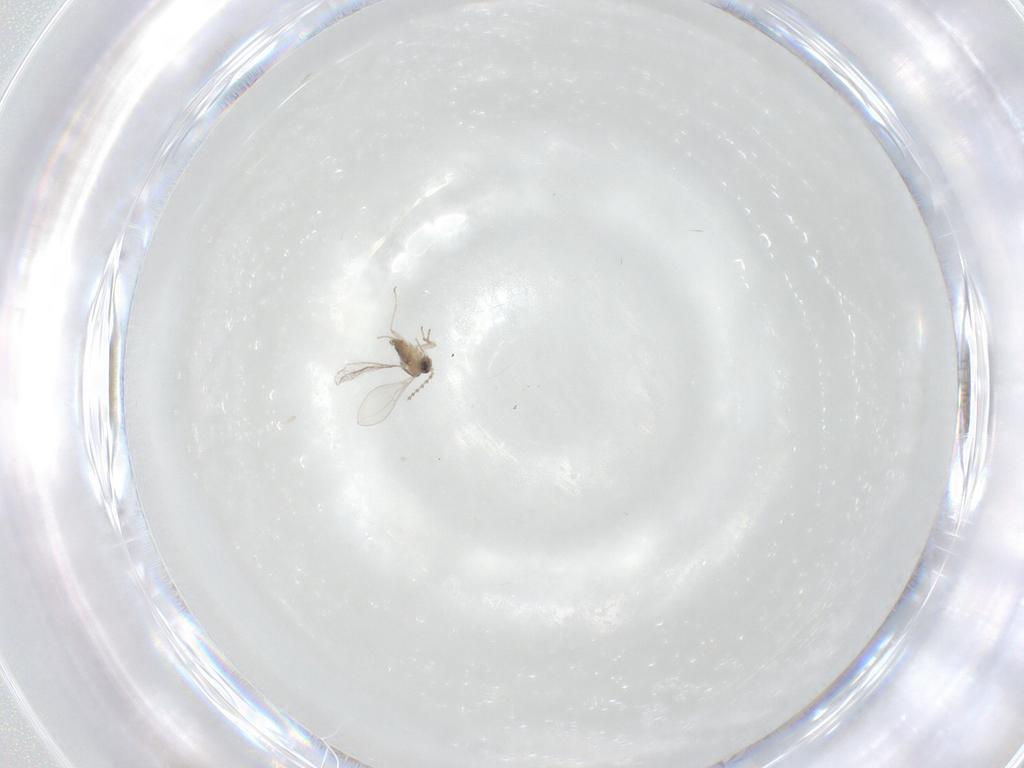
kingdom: Animalia
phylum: Arthropoda
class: Insecta
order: Diptera
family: Cecidomyiidae
